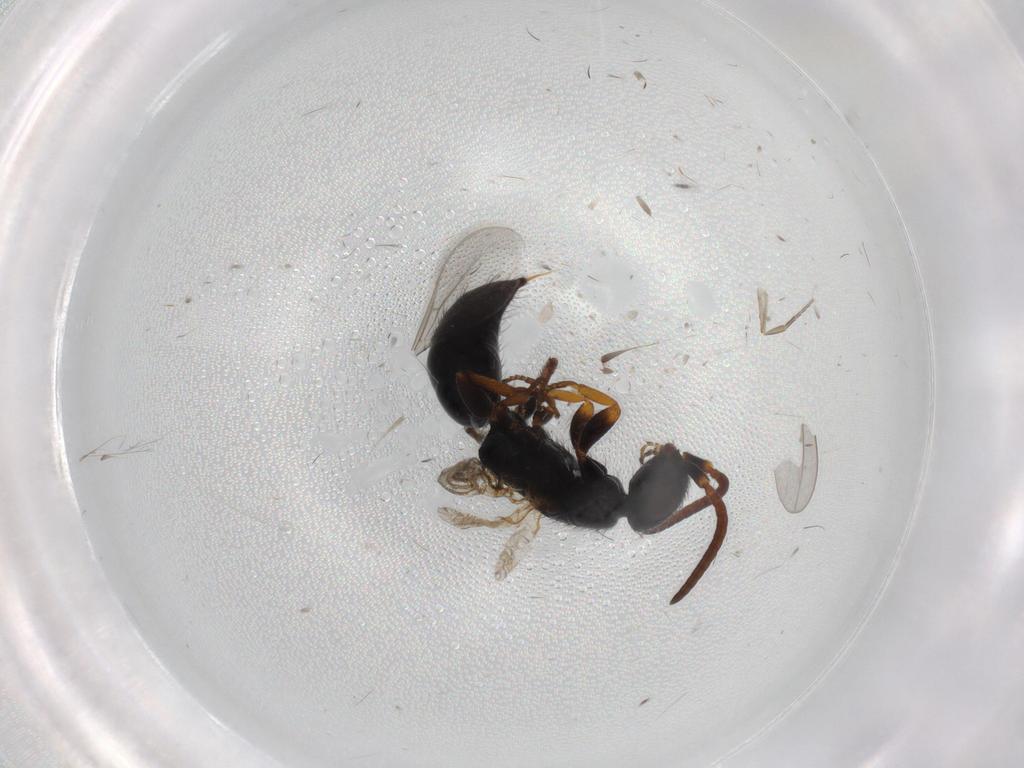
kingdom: Animalia
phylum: Arthropoda
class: Insecta
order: Hymenoptera
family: Bethylidae
